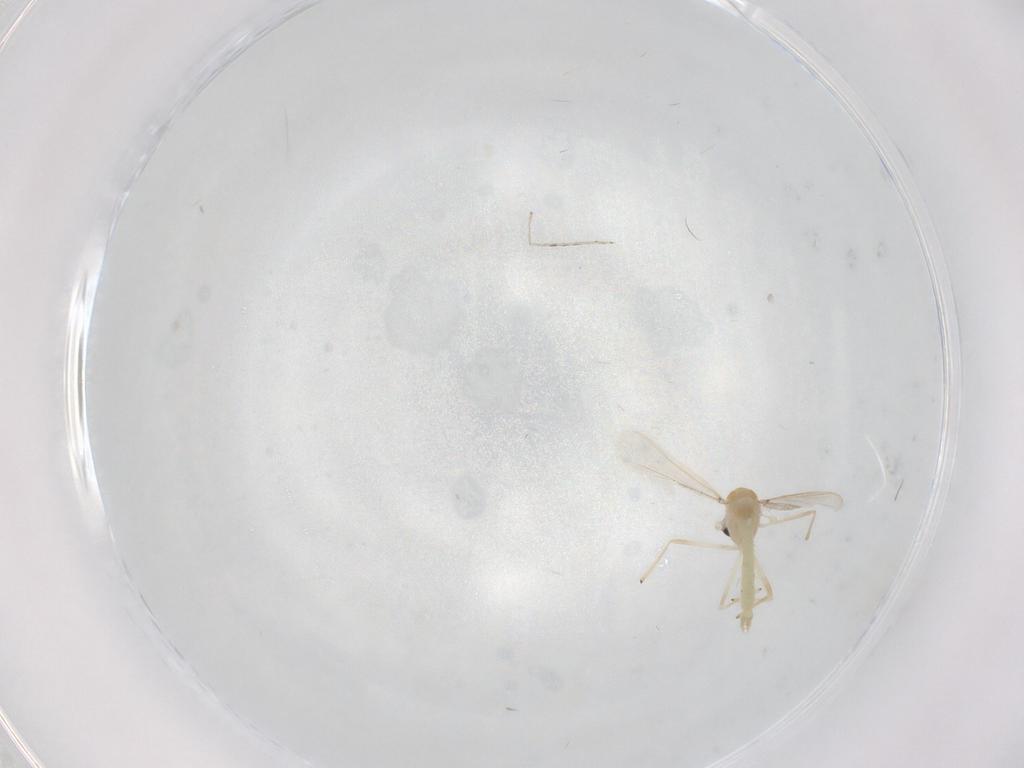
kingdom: Animalia
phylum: Arthropoda
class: Insecta
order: Diptera
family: Chironomidae
